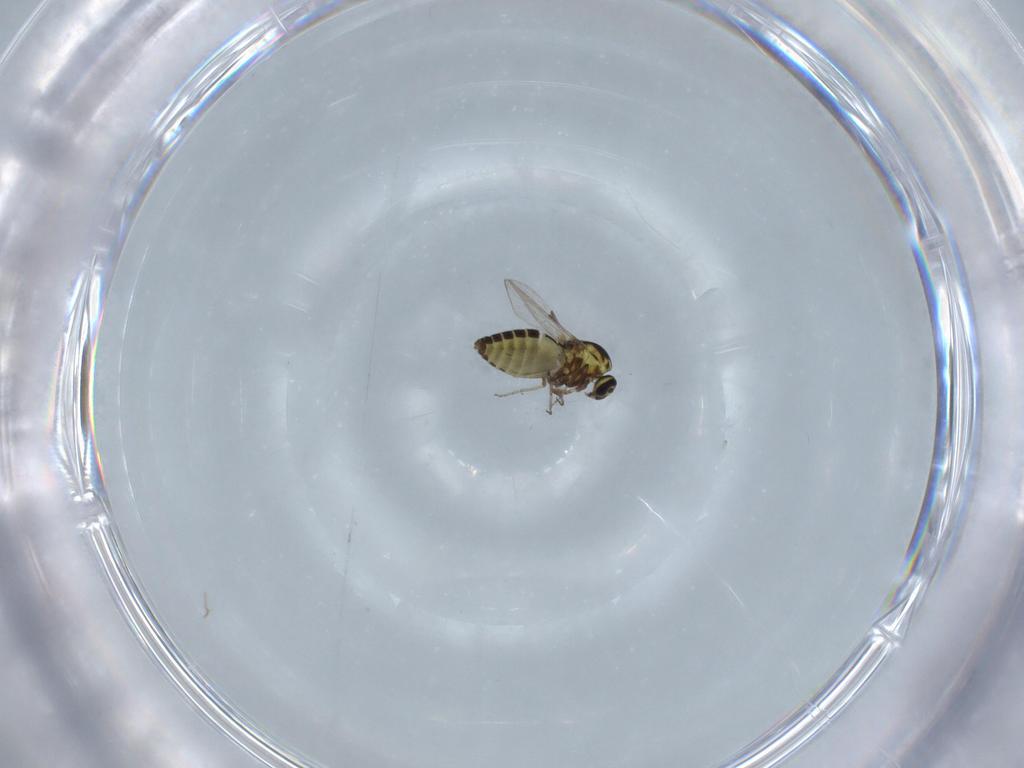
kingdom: Animalia
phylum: Arthropoda
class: Insecta
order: Diptera
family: Ceratopogonidae
